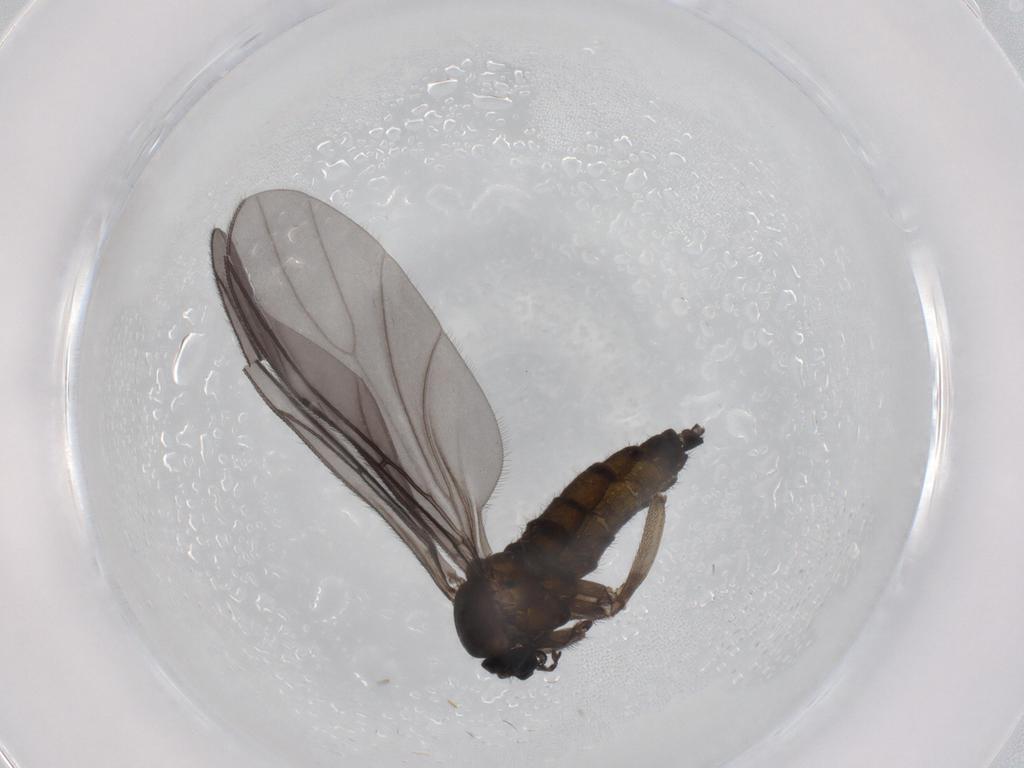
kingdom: Animalia
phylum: Arthropoda
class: Insecta
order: Diptera
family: Sciaridae
